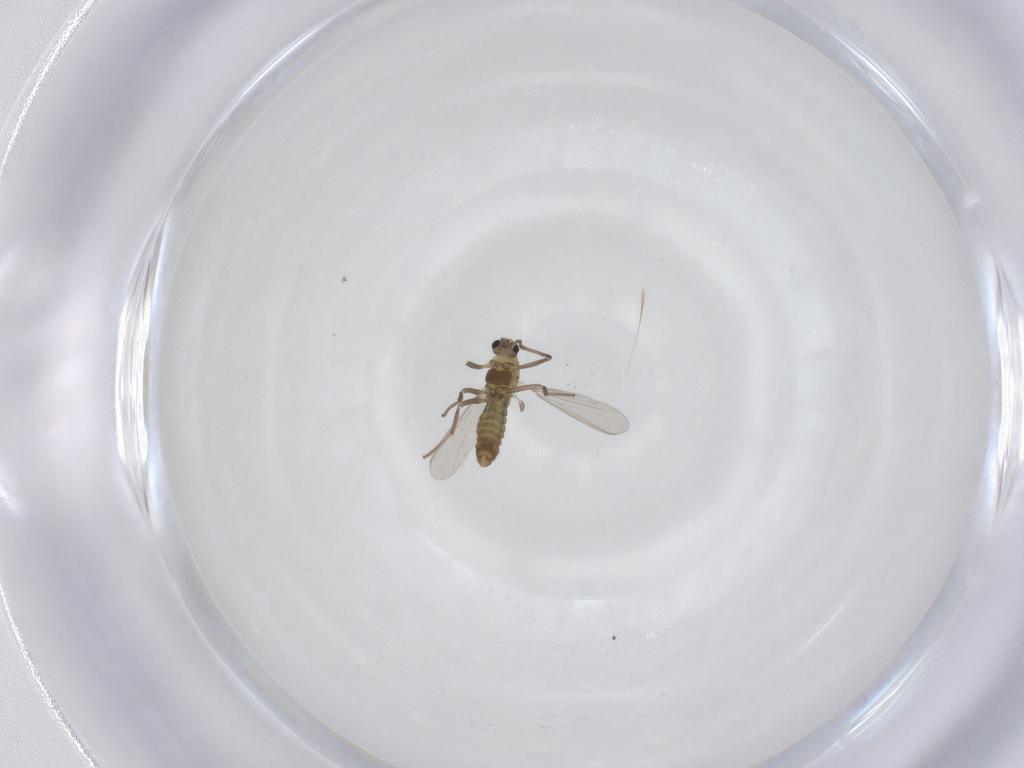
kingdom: Animalia
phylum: Arthropoda
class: Insecta
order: Diptera
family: Chironomidae
